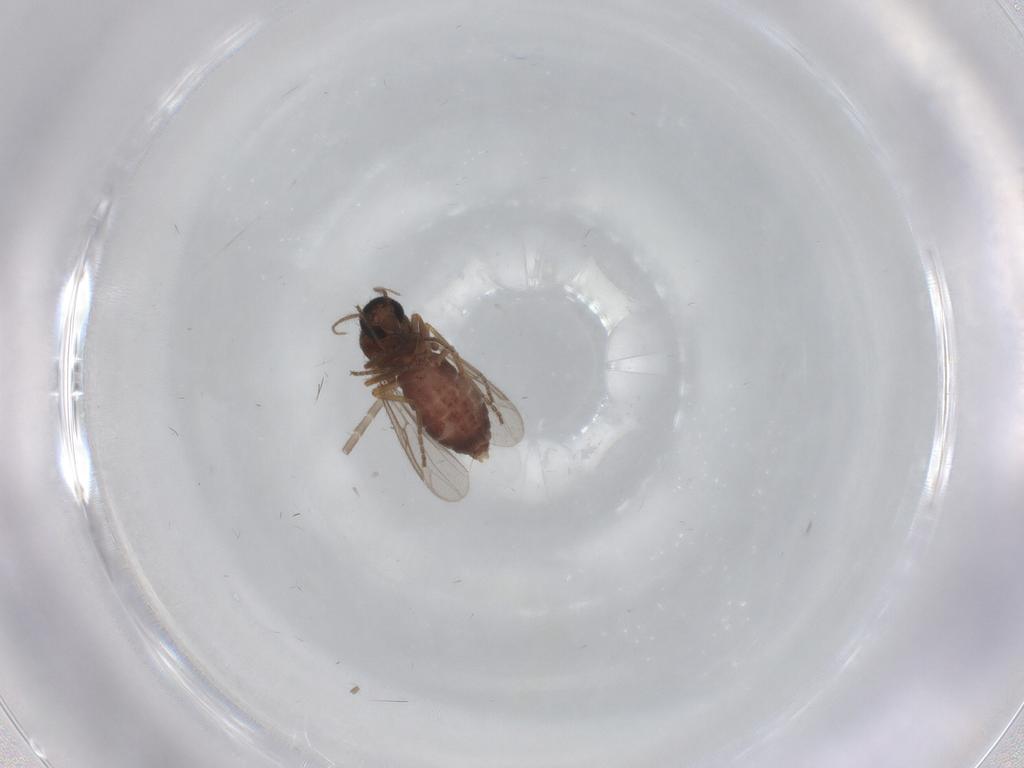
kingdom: Animalia
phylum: Arthropoda
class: Insecta
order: Diptera
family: Ceratopogonidae
